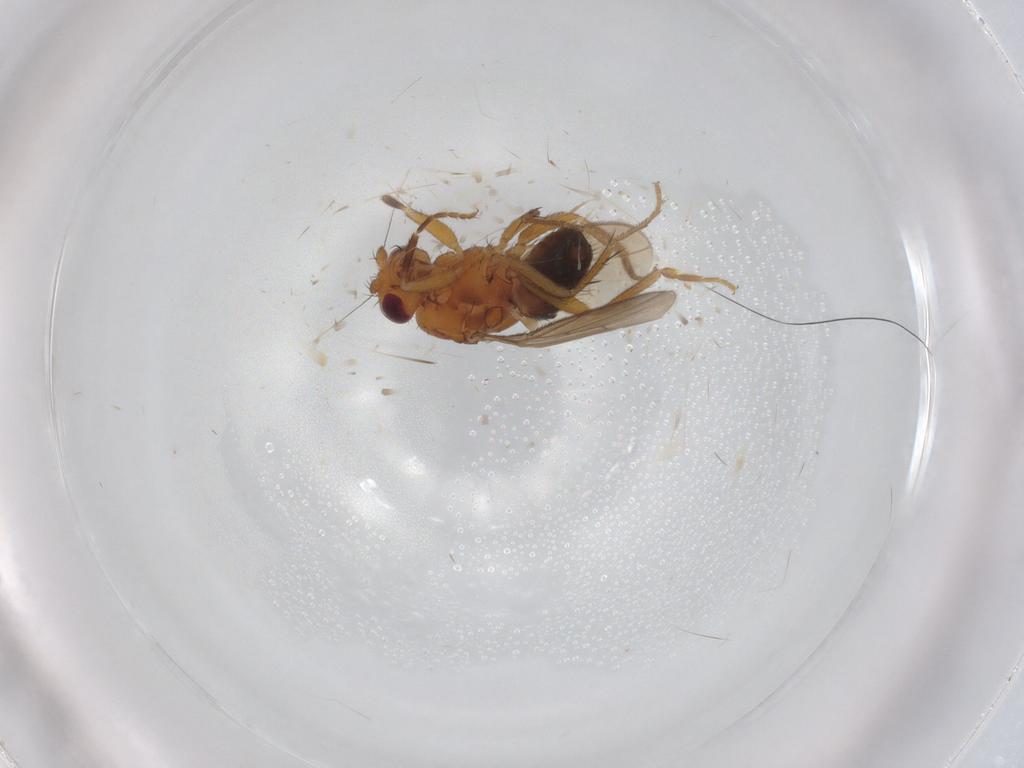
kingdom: Animalia
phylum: Arthropoda
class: Insecta
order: Diptera
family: Sphaeroceridae
